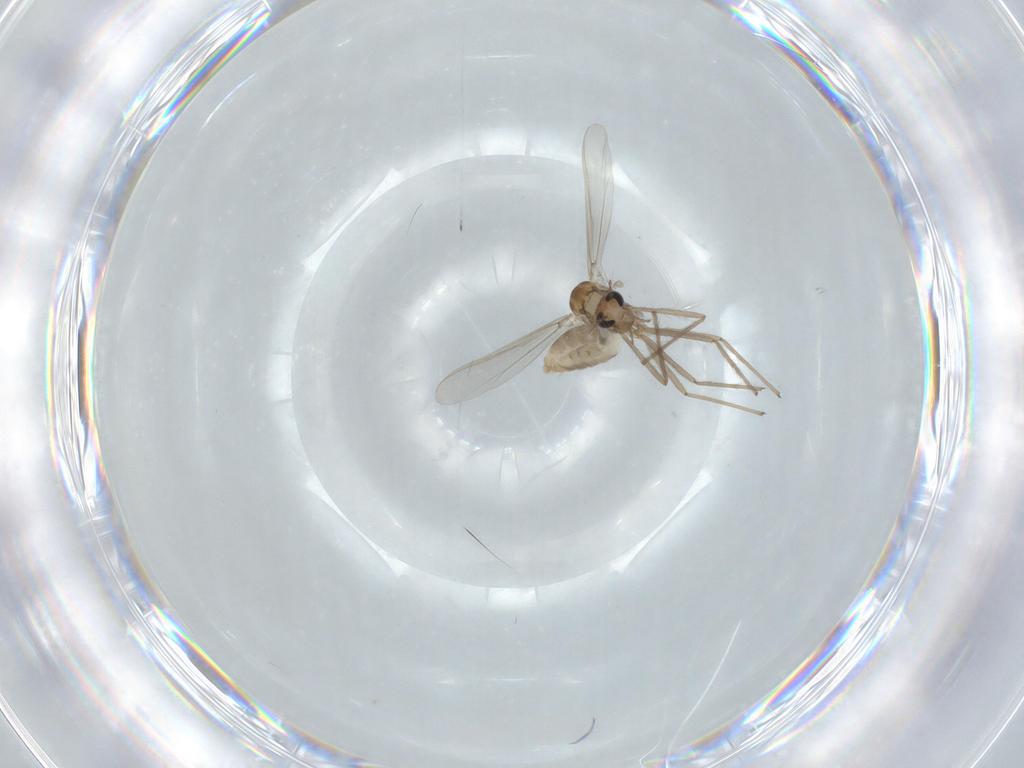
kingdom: Animalia
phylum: Arthropoda
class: Insecta
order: Diptera
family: Chironomidae
